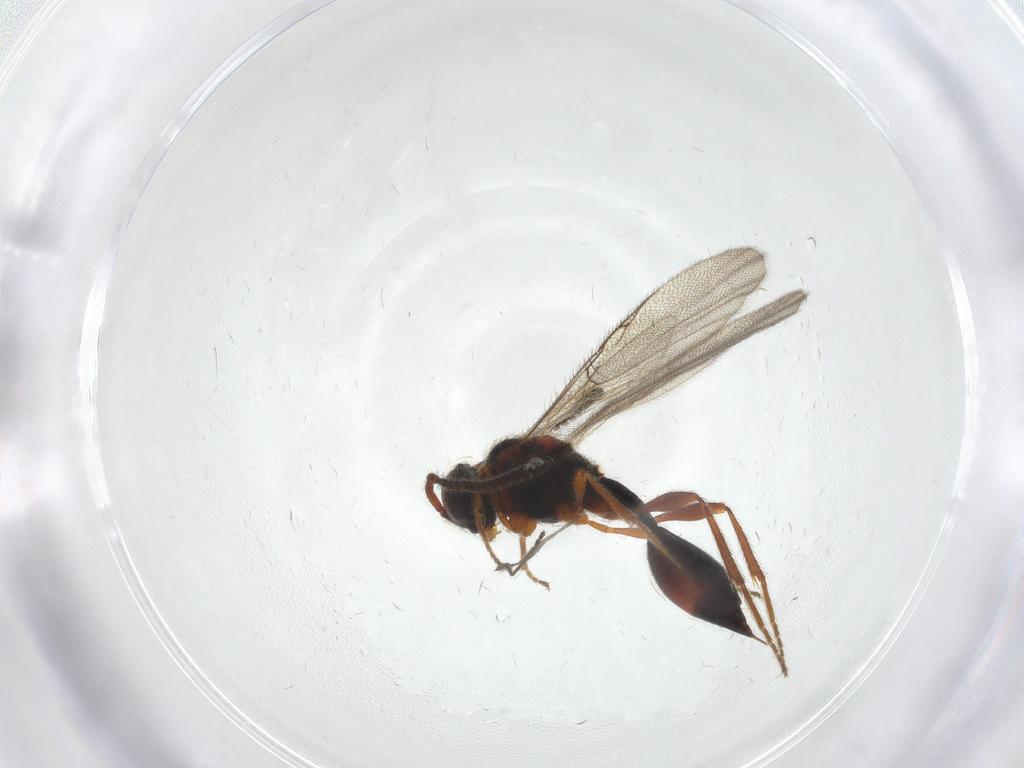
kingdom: Animalia
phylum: Arthropoda
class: Insecta
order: Hymenoptera
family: Diapriidae
